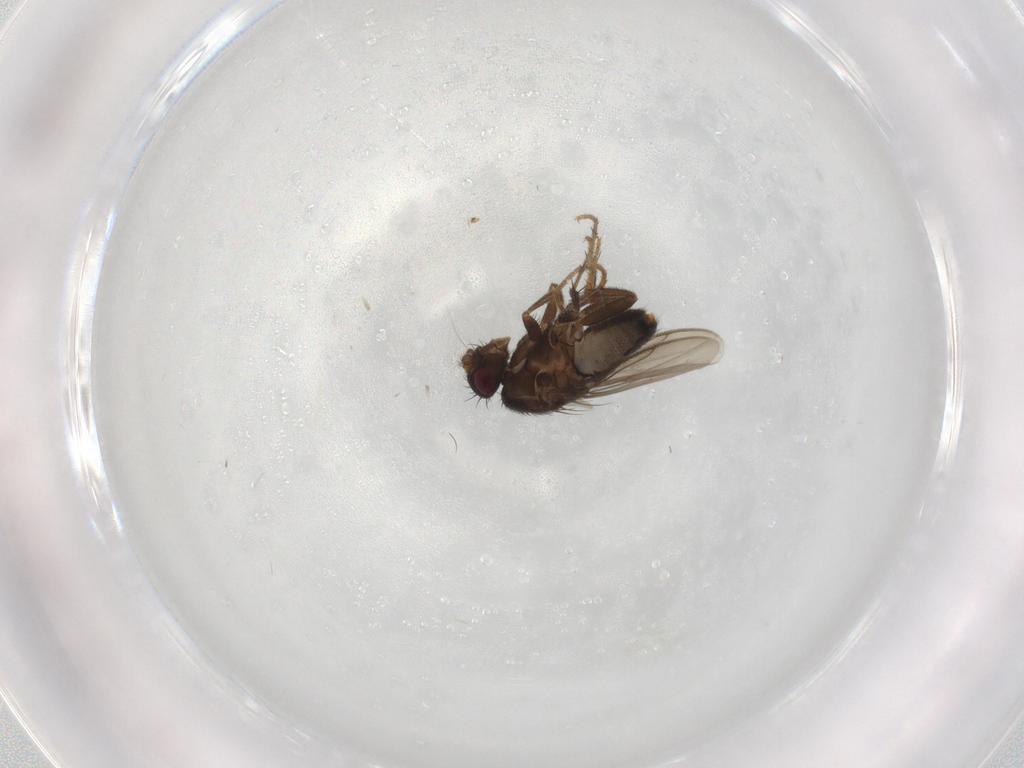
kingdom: Animalia
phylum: Arthropoda
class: Insecta
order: Diptera
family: Sphaeroceridae
